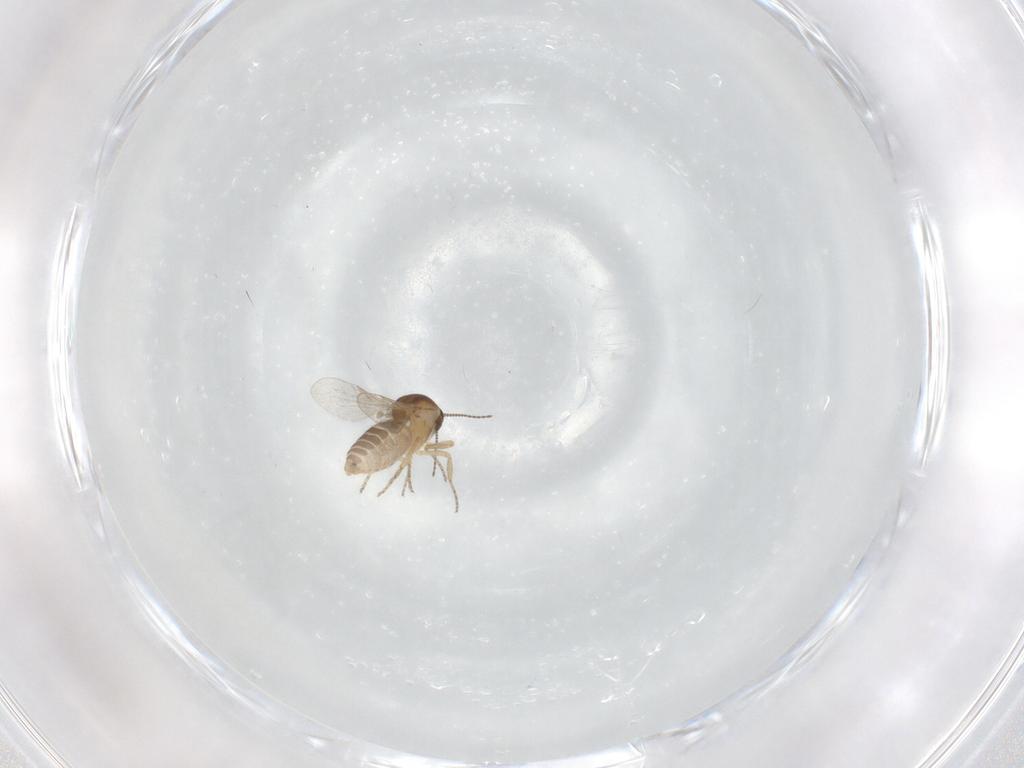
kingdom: Animalia
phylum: Arthropoda
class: Insecta
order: Diptera
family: Ceratopogonidae
